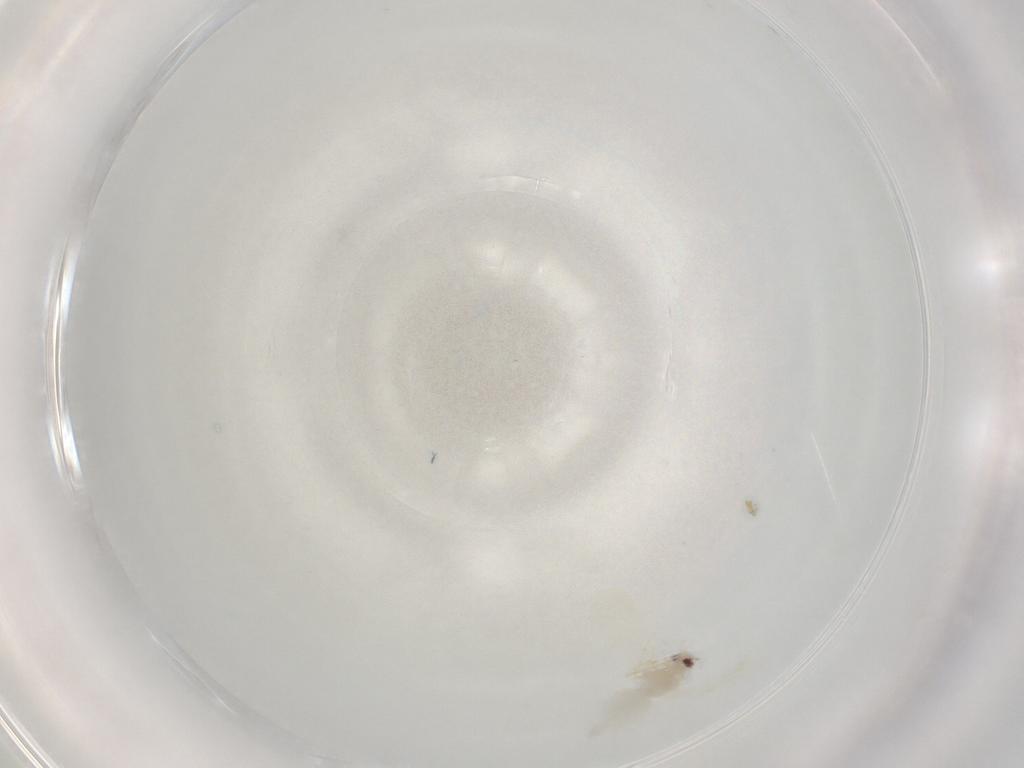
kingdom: Animalia
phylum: Arthropoda
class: Insecta
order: Hemiptera
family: Aleyrodidae
